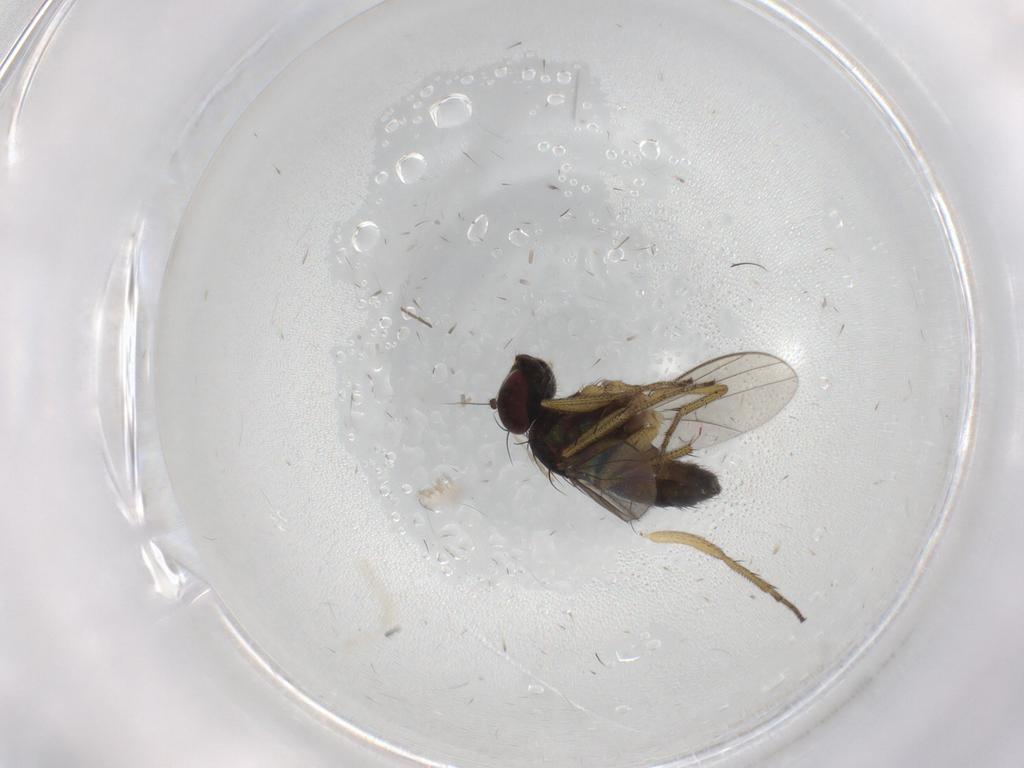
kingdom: Animalia
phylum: Arthropoda
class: Insecta
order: Diptera
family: Dolichopodidae
